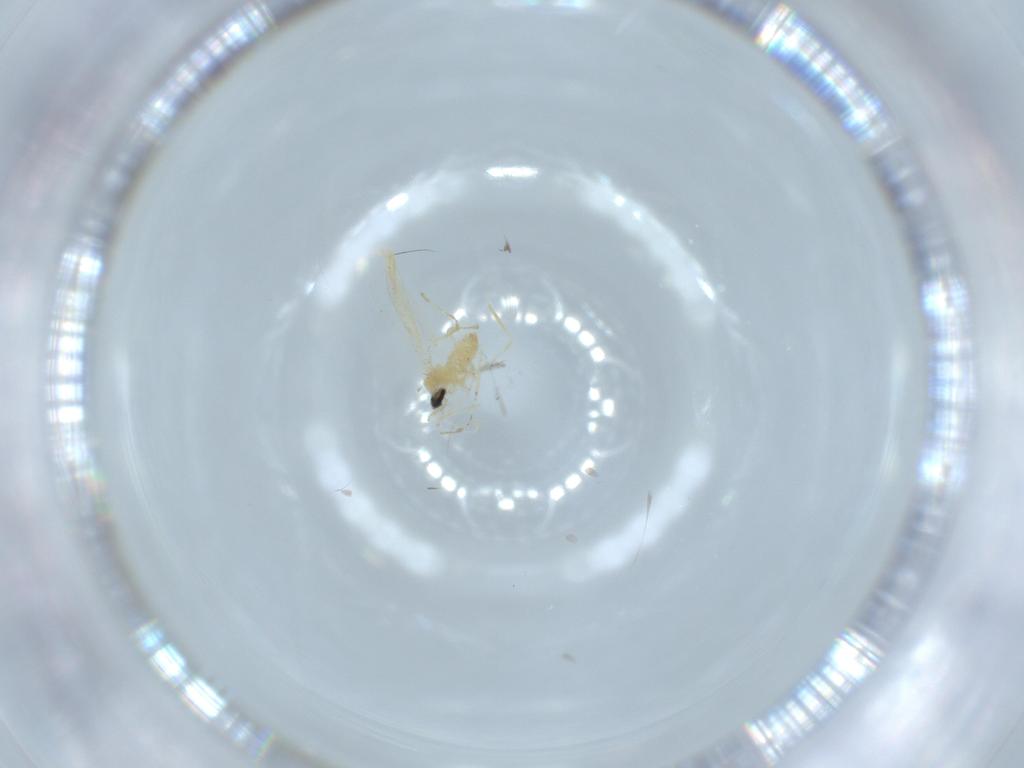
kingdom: Animalia
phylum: Arthropoda
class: Insecta
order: Diptera
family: Cecidomyiidae
